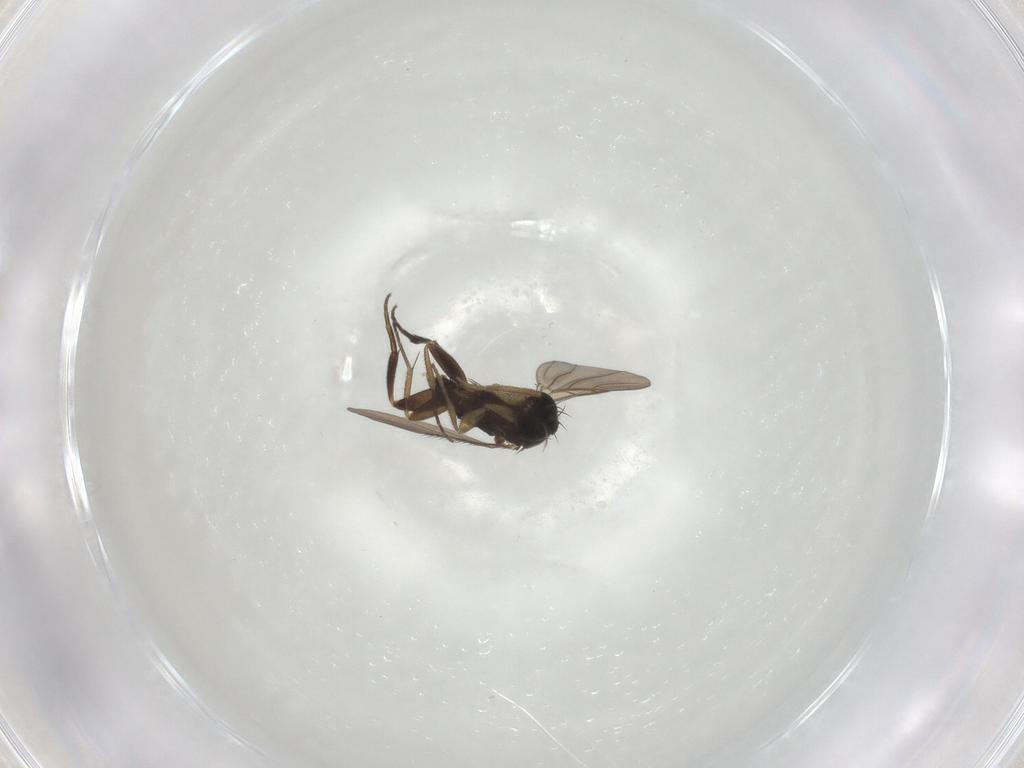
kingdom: Animalia
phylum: Arthropoda
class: Insecta
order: Diptera
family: Phoridae
